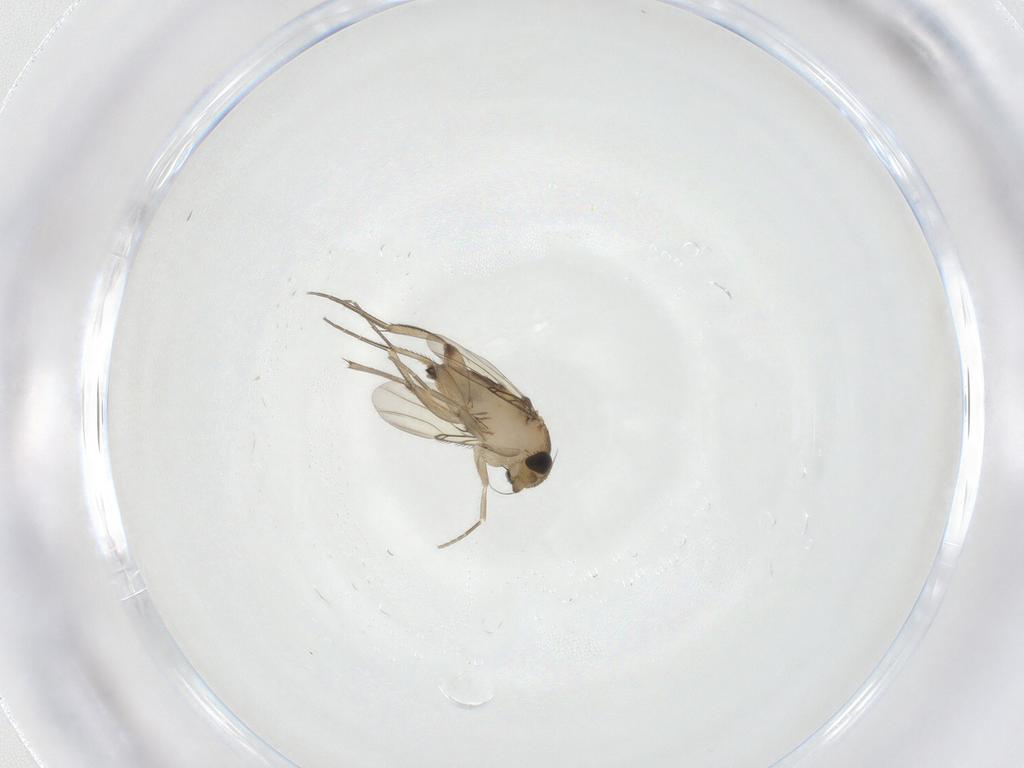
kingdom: Animalia
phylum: Arthropoda
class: Insecta
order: Diptera
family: Phoridae
